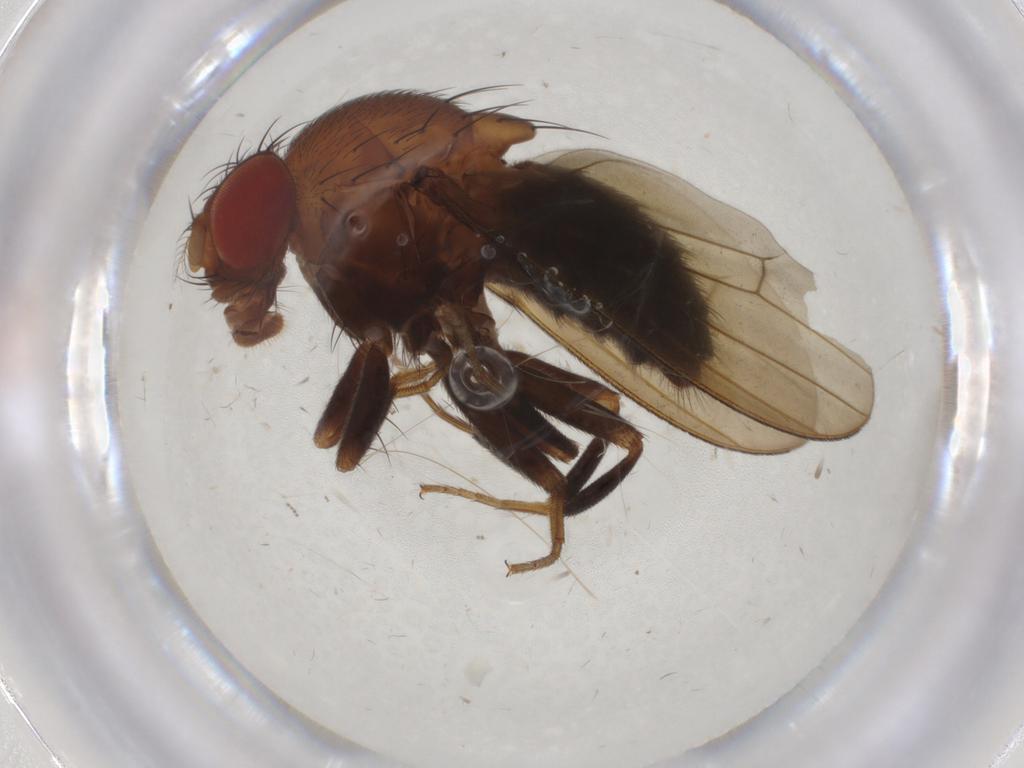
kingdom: Animalia
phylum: Arthropoda
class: Insecta
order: Diptera
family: Drosophilidae
